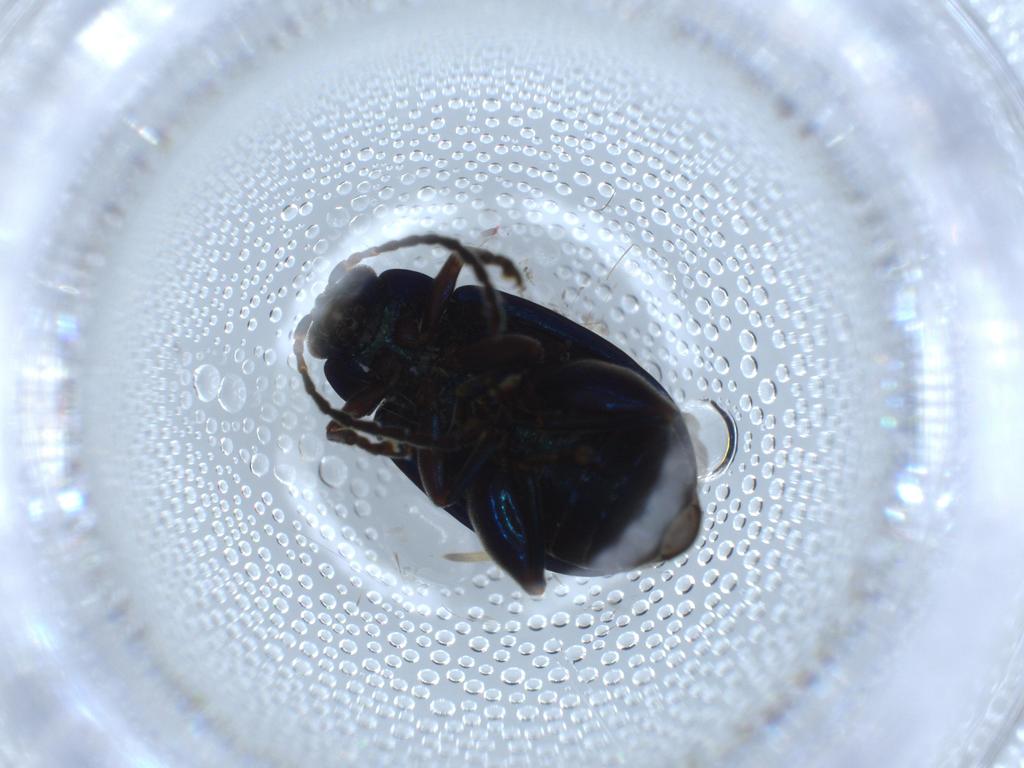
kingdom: Animalia
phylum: Arthropoda
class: Insecta
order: Coleoptera
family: Chrysomelidae
